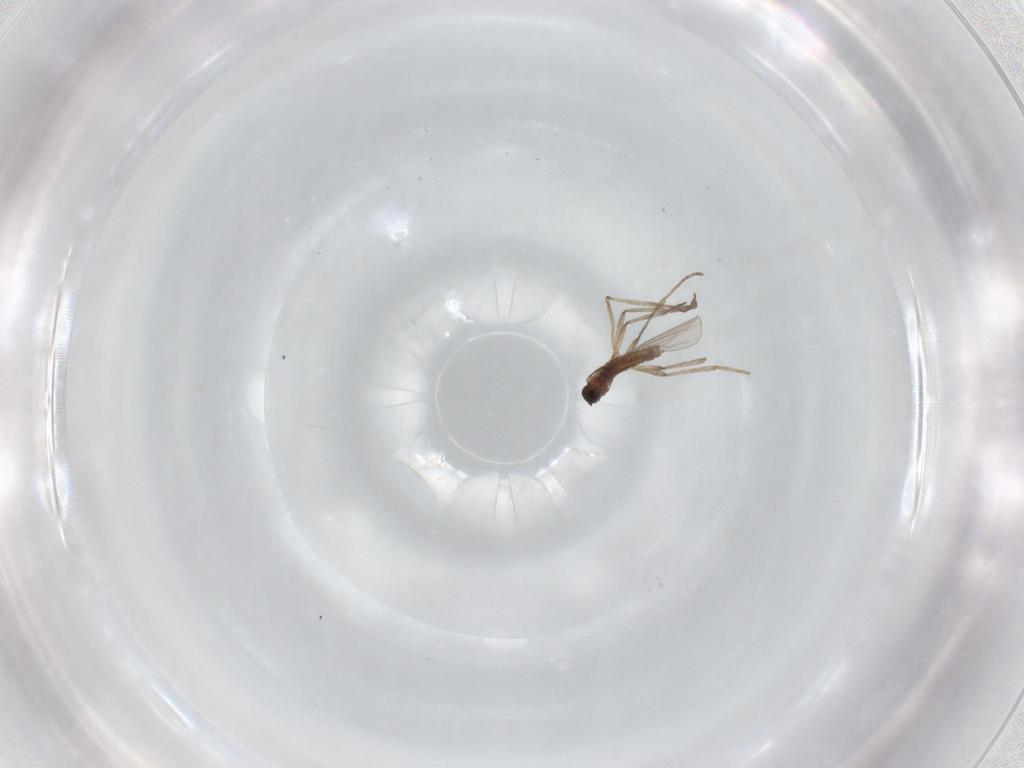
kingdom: Animalia
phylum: Arthropoda
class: Insecta
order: Diptera
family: Cecidomyiidae
